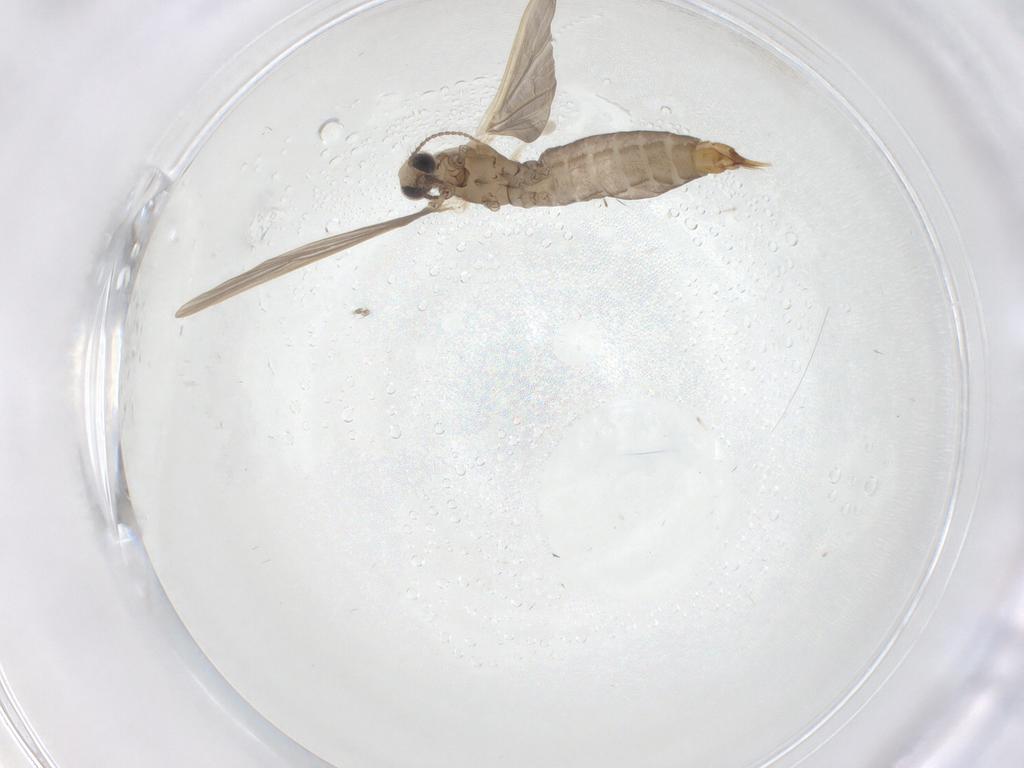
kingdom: Animalia
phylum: Arthropoda
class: Insecta
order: Diptera
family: Limoniidae
